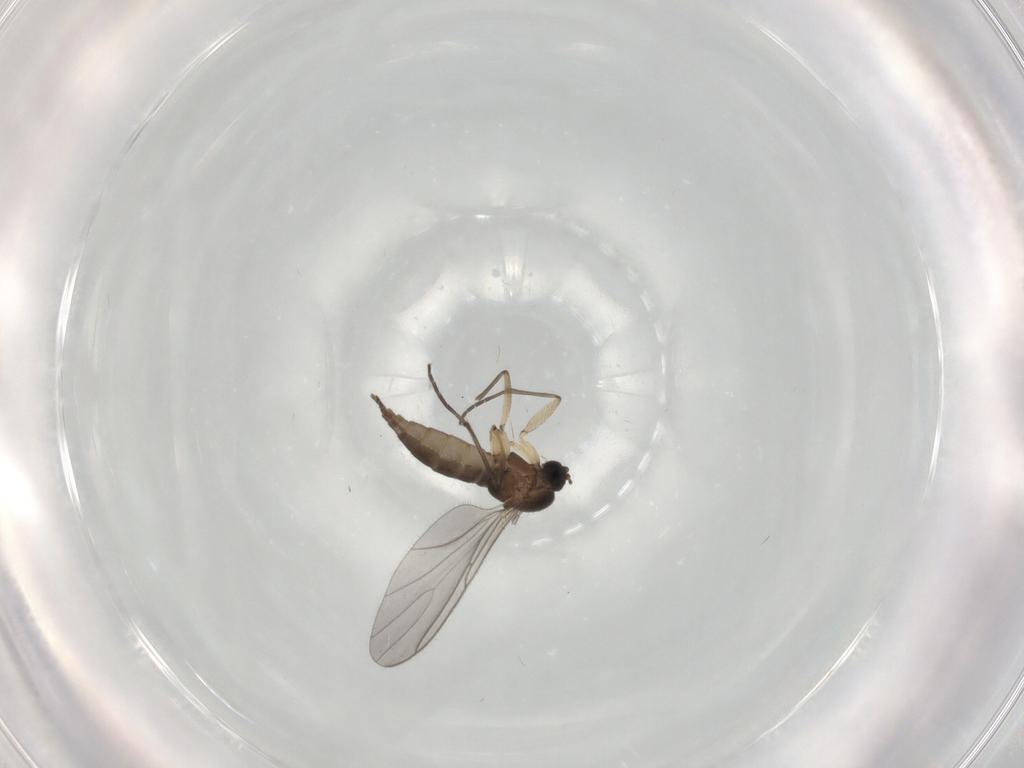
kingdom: Animalia
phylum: Arthropoda
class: Insecta
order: Diptera
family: Sciaridae
